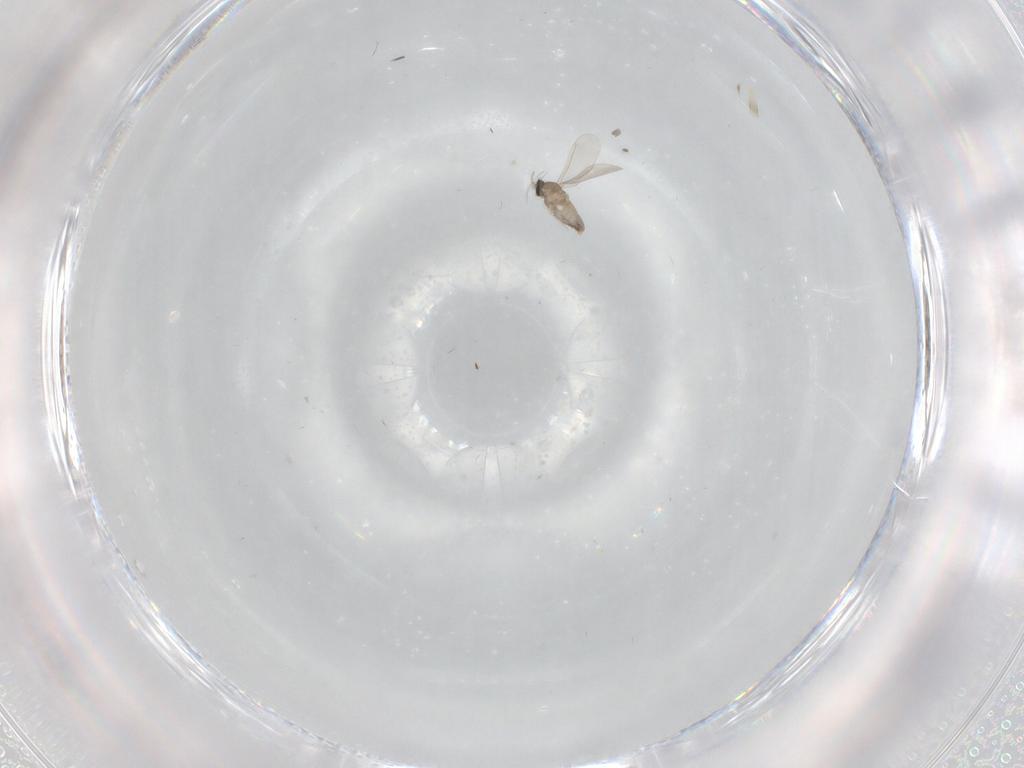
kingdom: Animalia
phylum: Arthropoda
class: Insecta
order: Diptera
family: Cecidomyiidae
